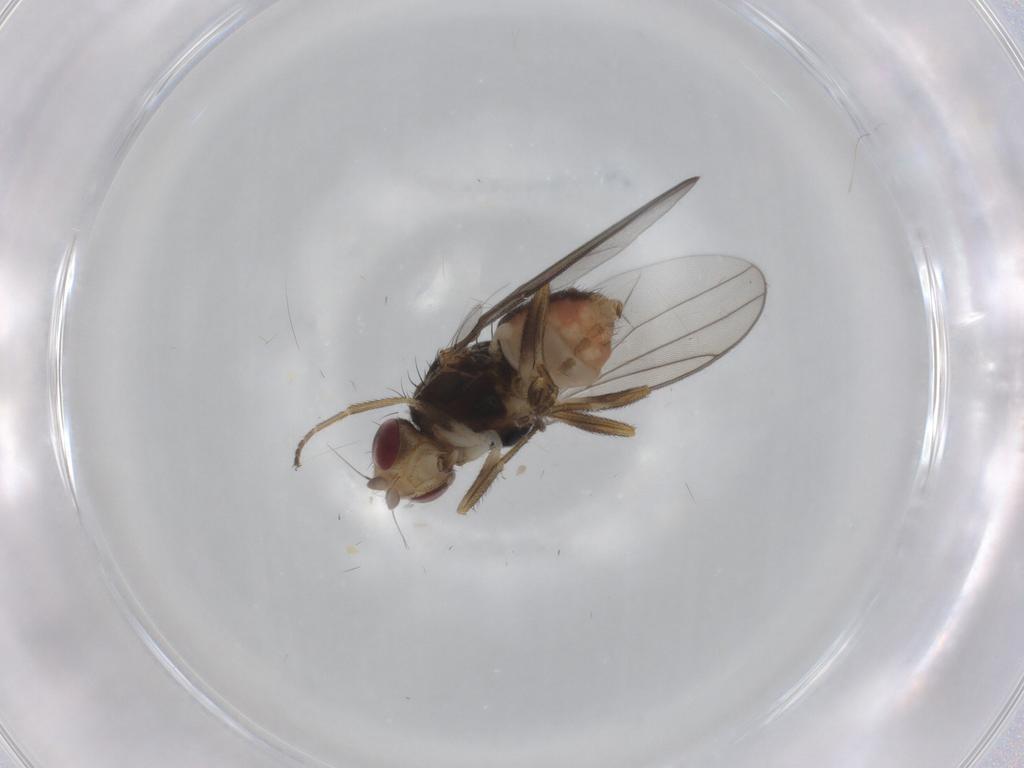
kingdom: Animalia
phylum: Arthropoda
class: Insecta
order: Diptera
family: Chloropidae
